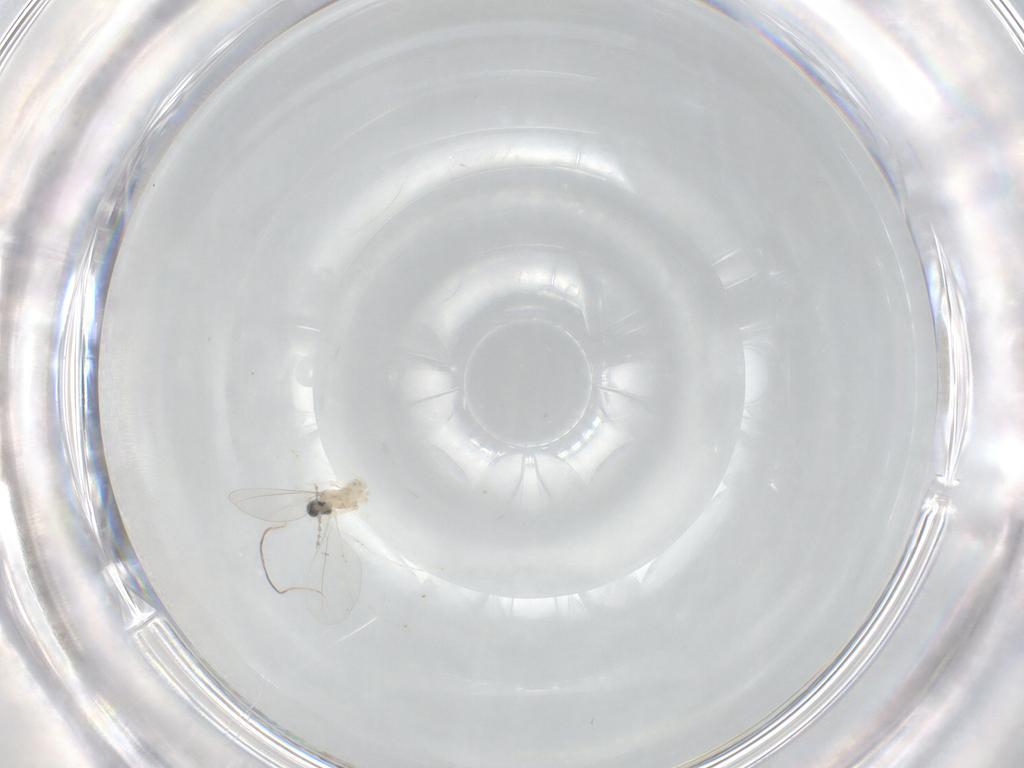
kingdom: Animalia
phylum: Arthropoda
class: Insecta
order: Diptera
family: Cecidomyiidae
